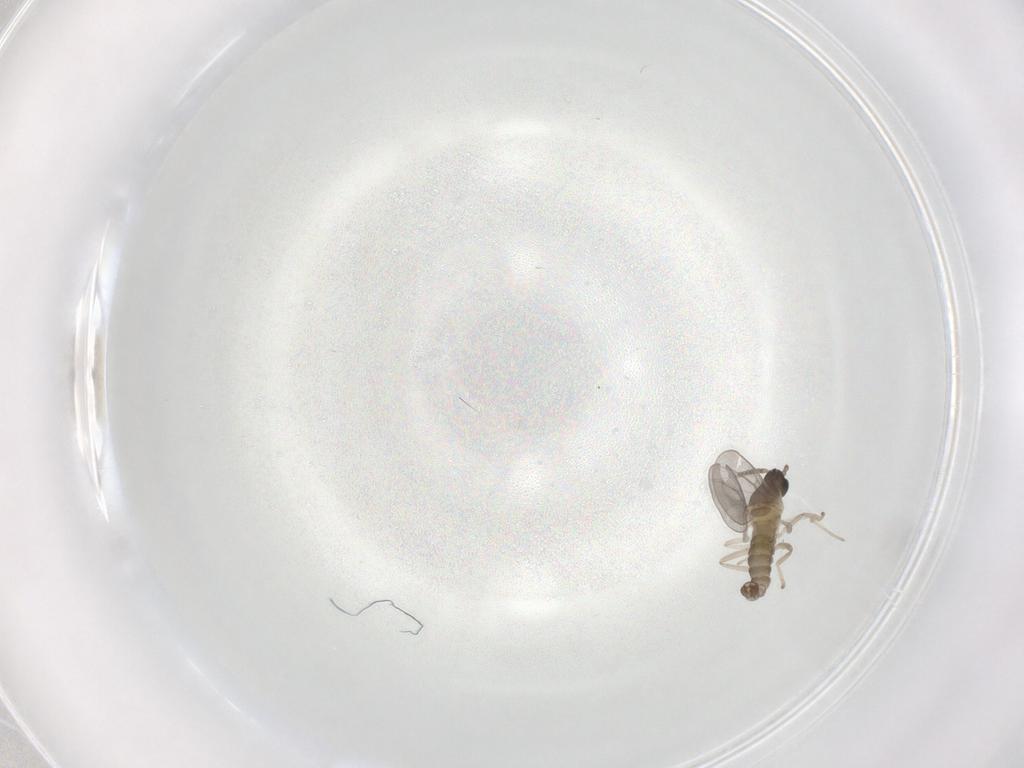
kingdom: Animalia
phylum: Arthropoda
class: Insecta
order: Diptera
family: Cecidomyiidae
